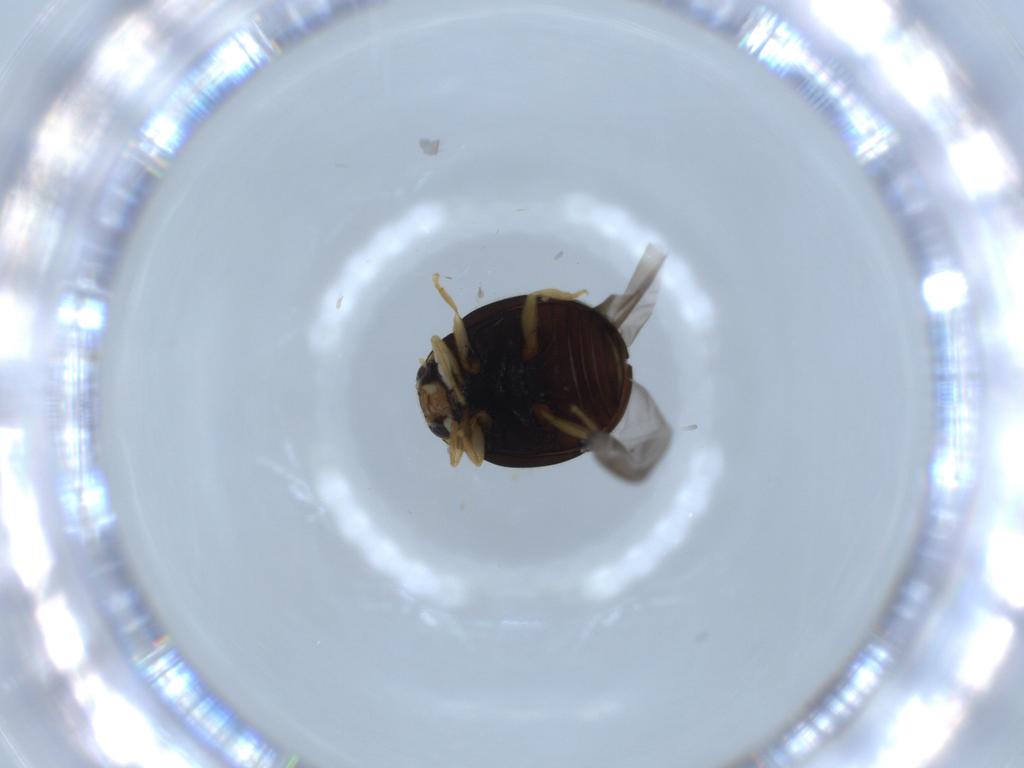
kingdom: Animalia
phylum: Arthropoda
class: Insecta
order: Coleoptera
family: Coccinellidae
